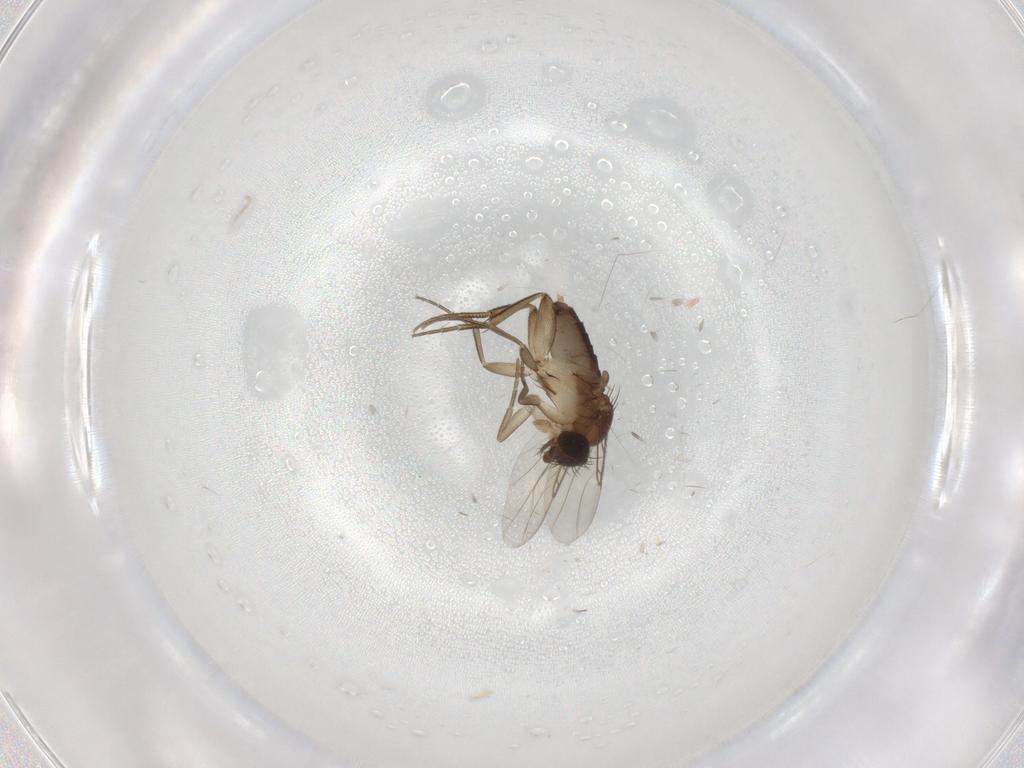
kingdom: Animalia
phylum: Arthropoda
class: Insecta
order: Diptera
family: Phoridae
